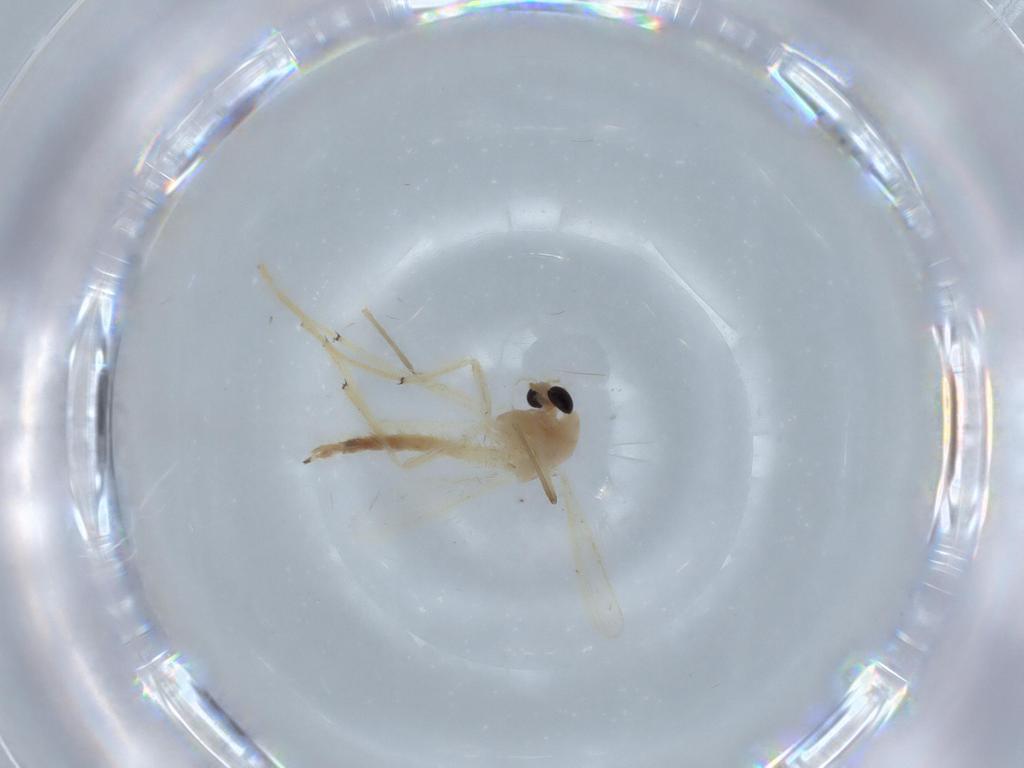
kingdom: Animalia
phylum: Arthropoda
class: Insecta
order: Diptera
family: Chironomidae
